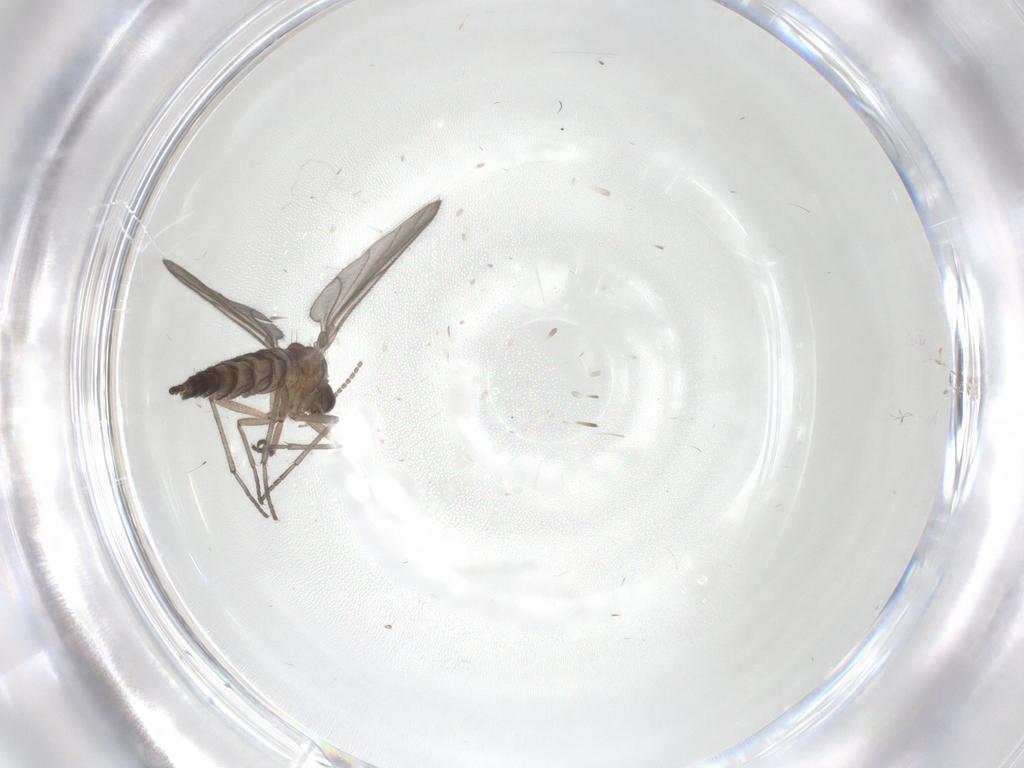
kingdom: Animalia
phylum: Arthropoda
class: Insecta
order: Diptera
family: Sciaridae
